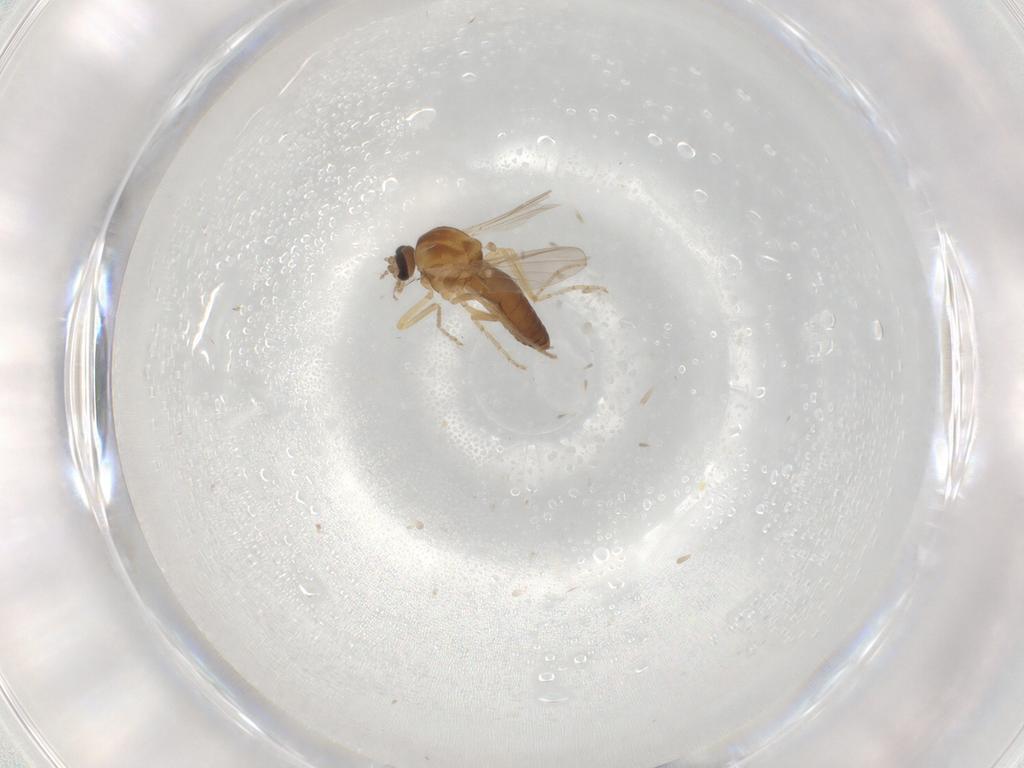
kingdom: Animalia
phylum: Arthropoda
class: Insecta
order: Diptera
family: Ceratopogonidae
